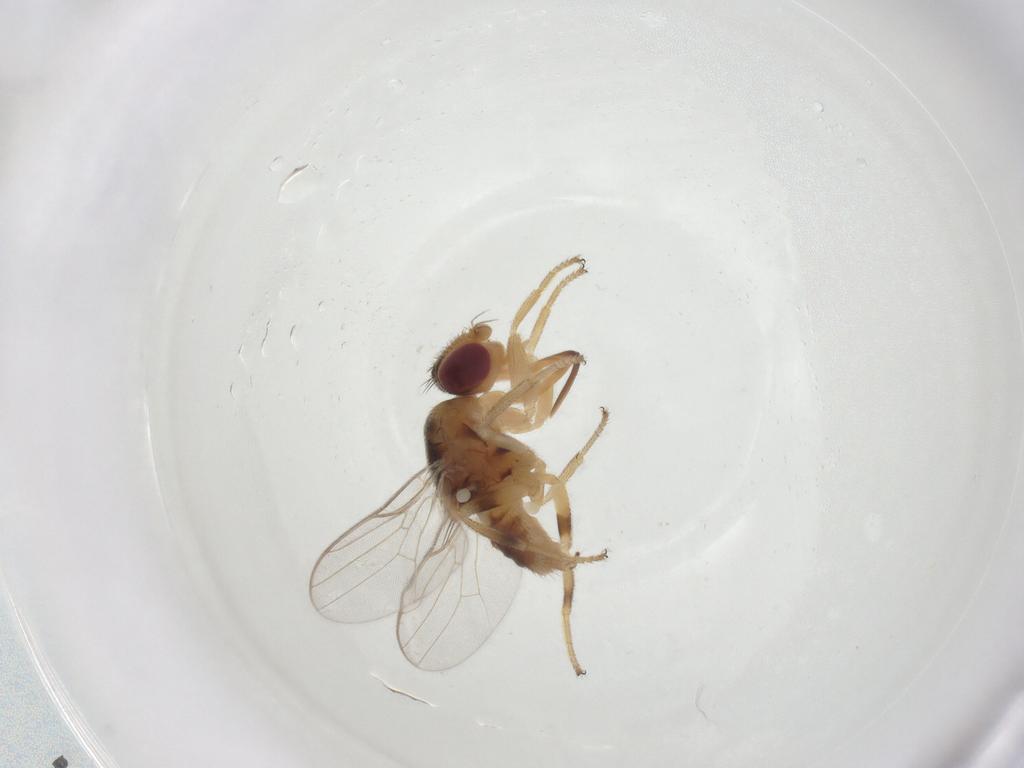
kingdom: Animalia
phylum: Arthropoda
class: Insecta
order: Diptera
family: Chloropidae
